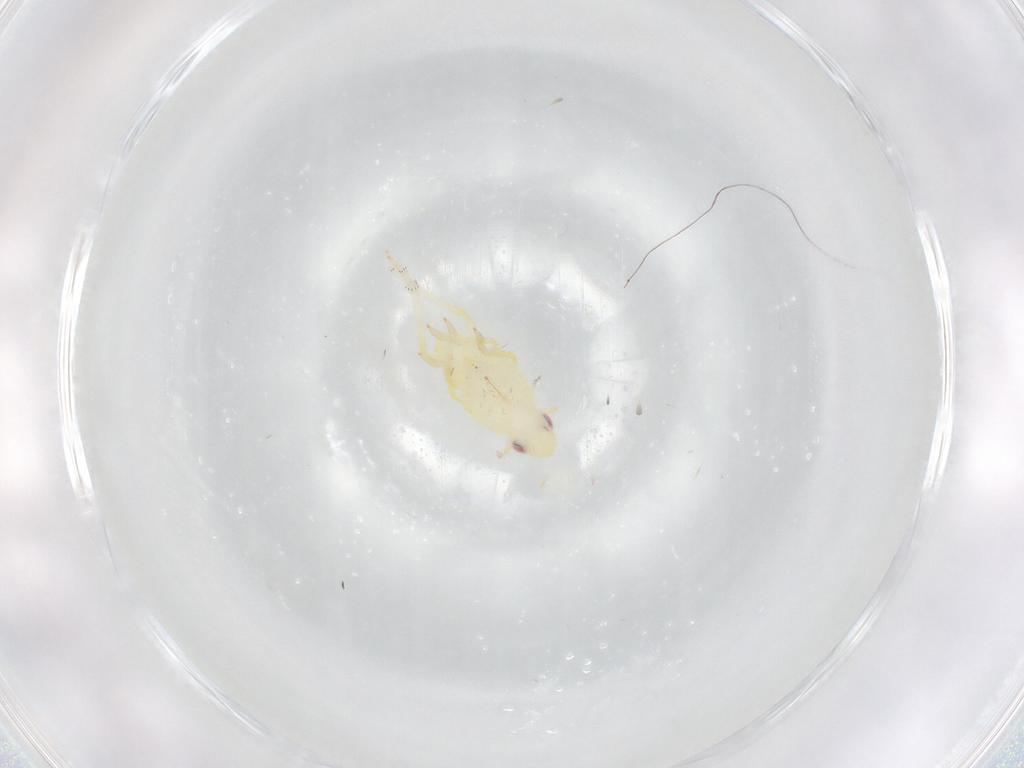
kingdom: Animalia
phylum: Arthropoda
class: Insecta
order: Hemiptera
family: Fulgoroidea_incertae_sedis
